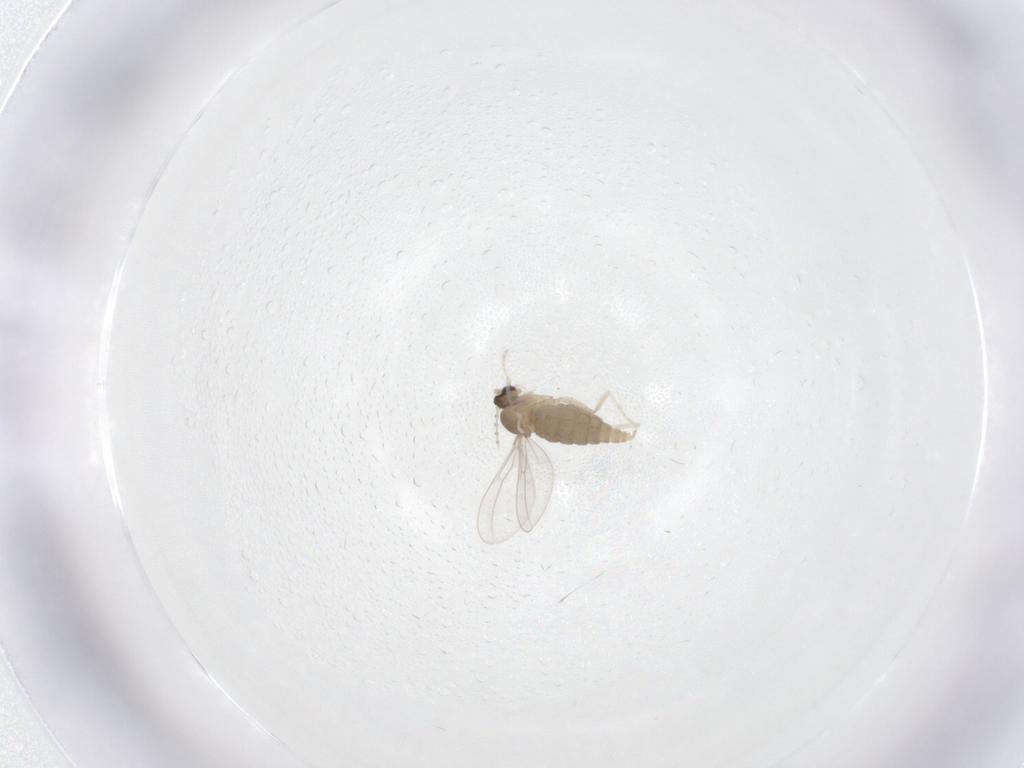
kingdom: Animalia
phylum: Arthropoda
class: Insecta
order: Diptera
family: Cecidomyiidae
